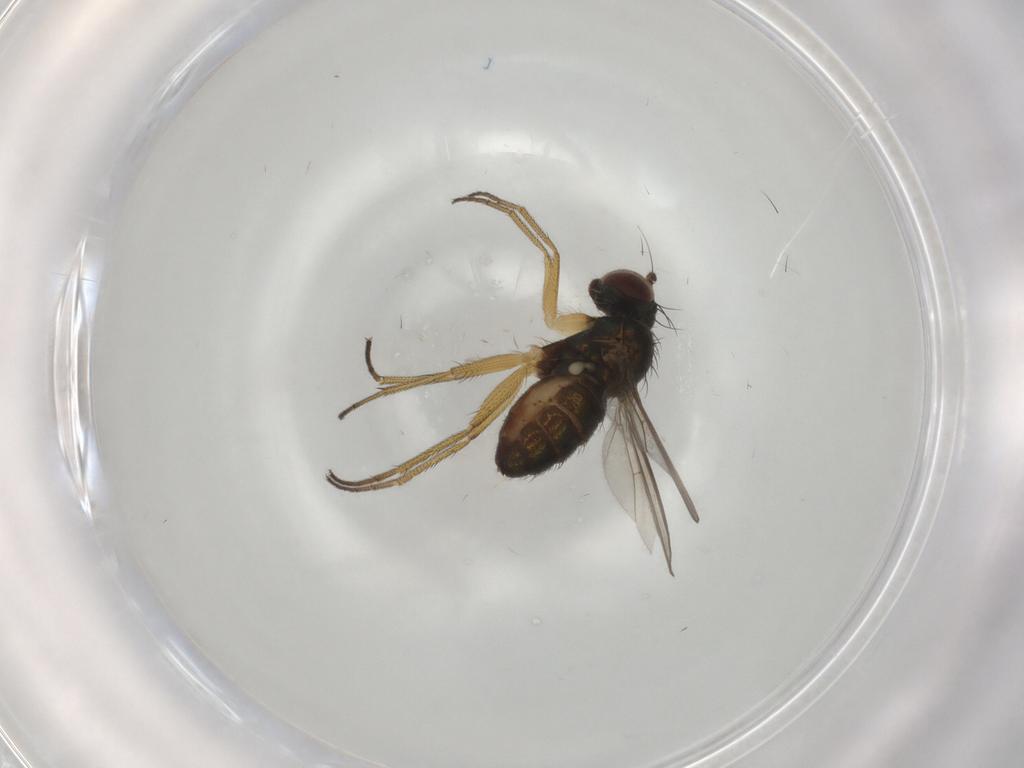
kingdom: Animalia
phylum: Arthropoda
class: Insecta
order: Diptera
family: Dolichopodidae
